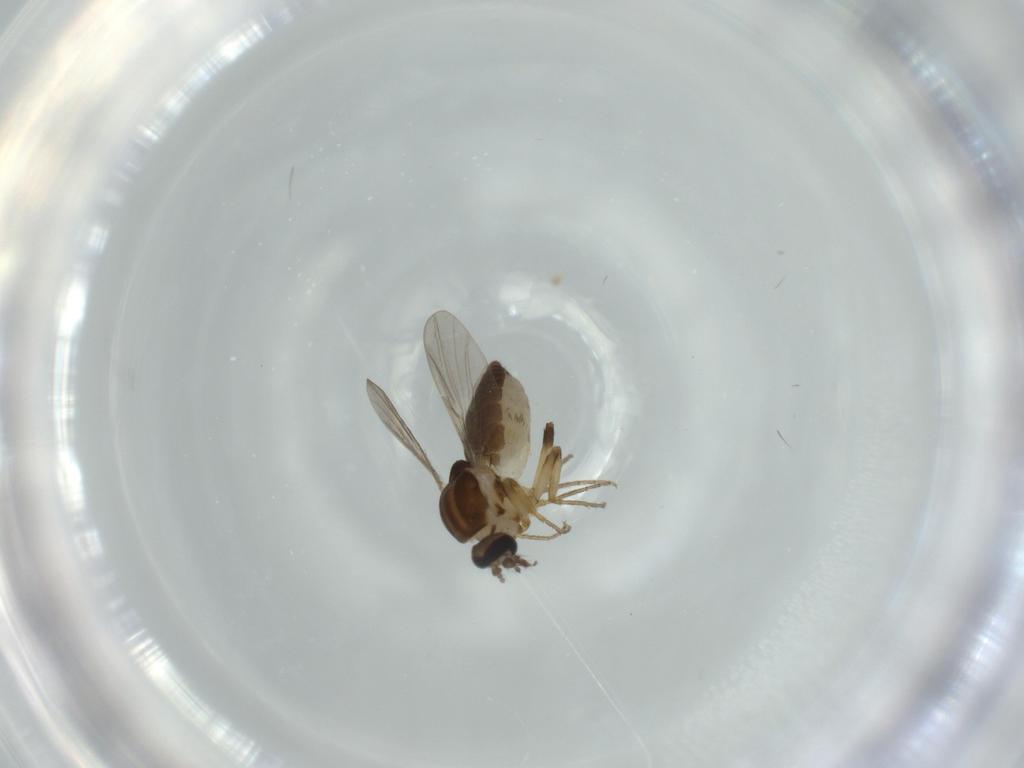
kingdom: Animalia
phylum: Arthropoda
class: Insecta
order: Diptera
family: Ceratopogonidae
